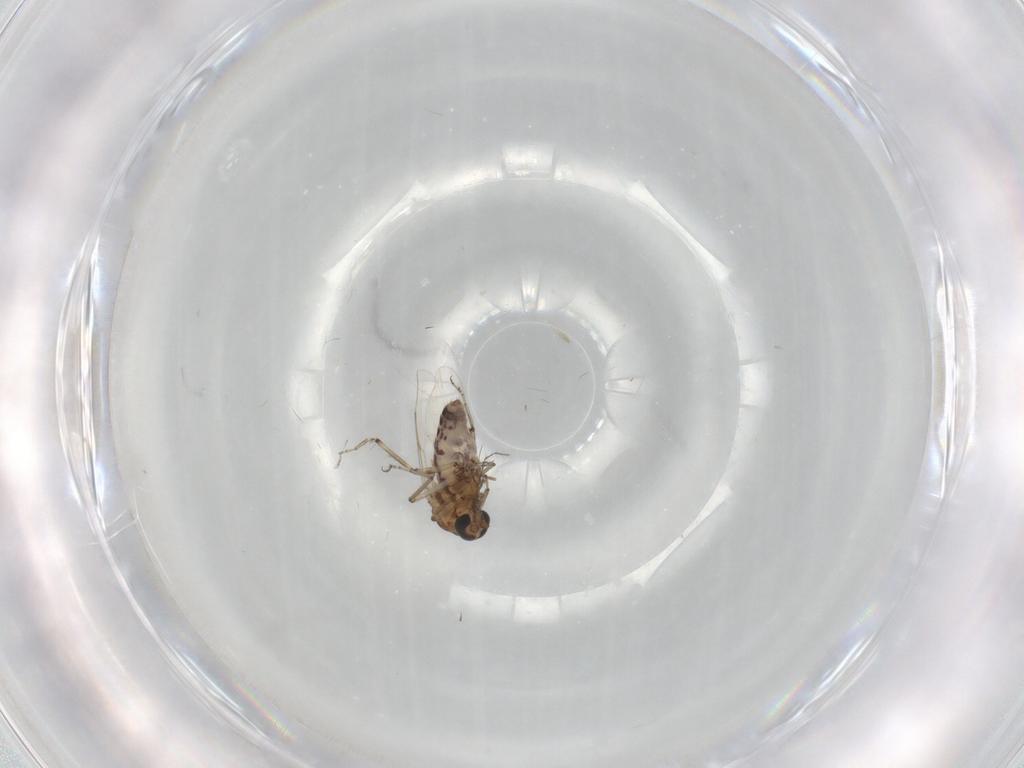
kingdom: Animalia
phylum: Arthropoda
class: Insecta
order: Diptera
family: Ceratopogonidae
